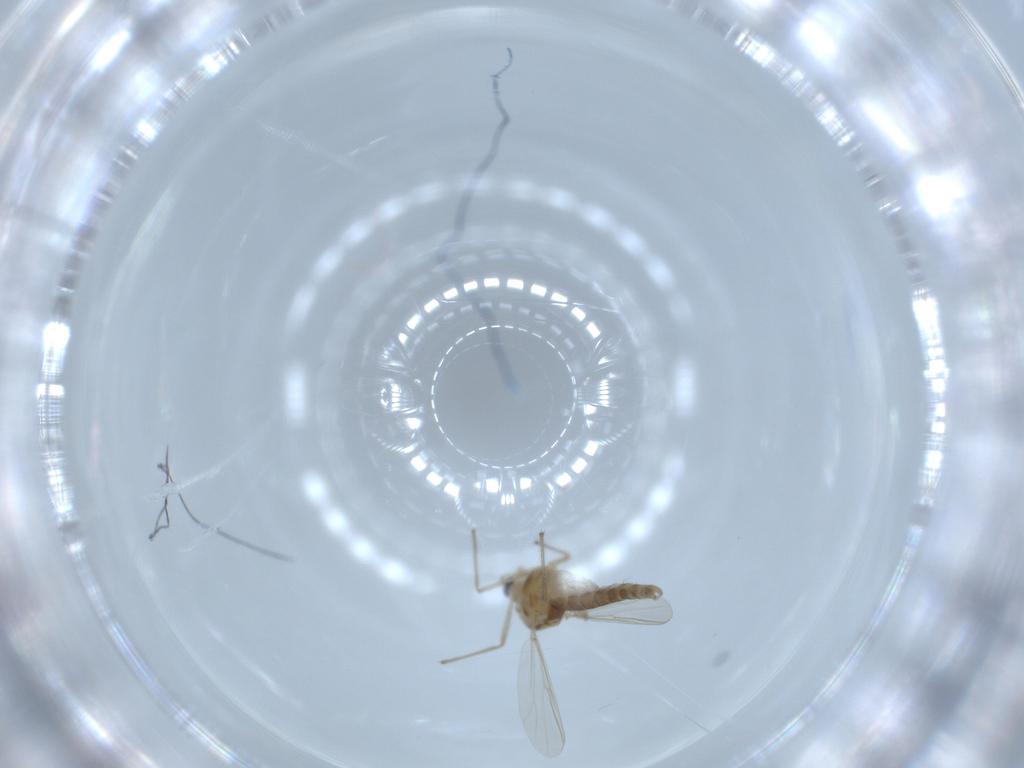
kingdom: Animalia
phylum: Arthropoda
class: Insecta
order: Diptera
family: Chironomidae
